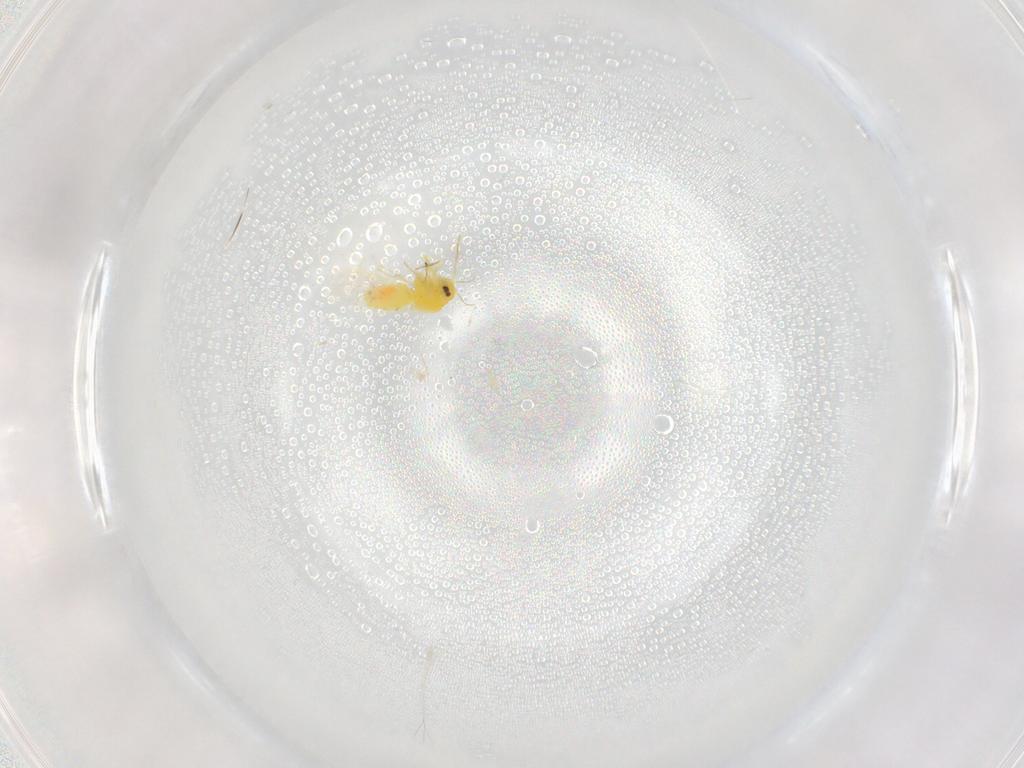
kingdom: Animalia
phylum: Arthropoda
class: Insecta
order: Hemiptera
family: Aleyrodidae
